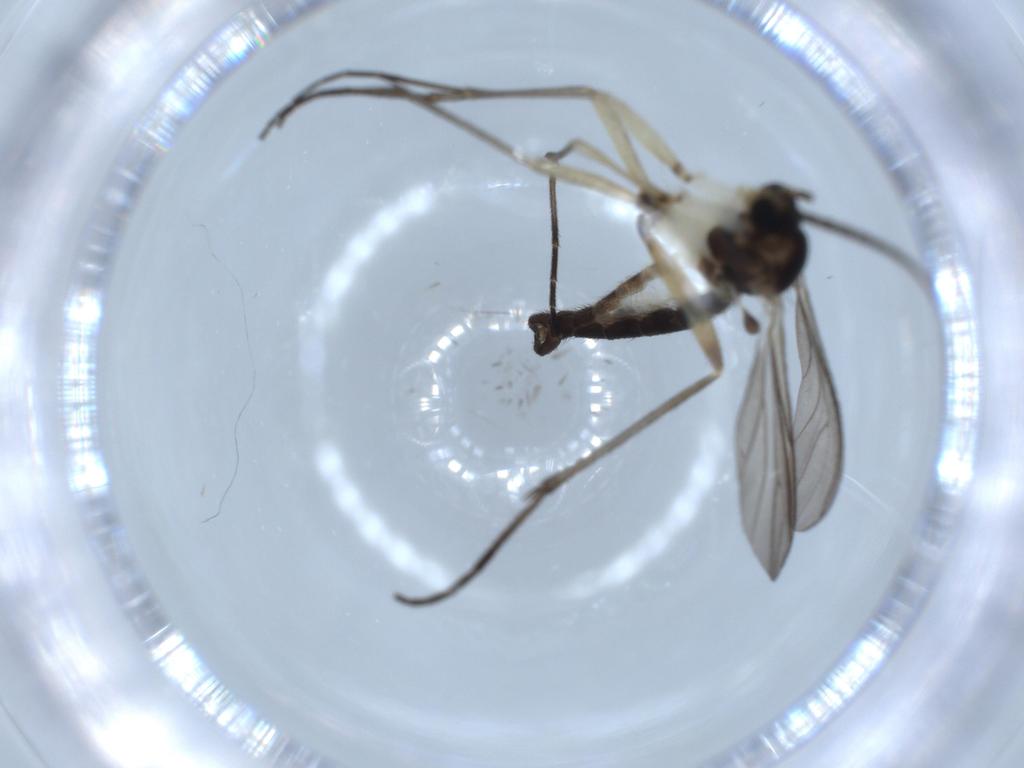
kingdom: Animalia
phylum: Arthropoda
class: Insecta
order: Diptera
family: Sciaridae
